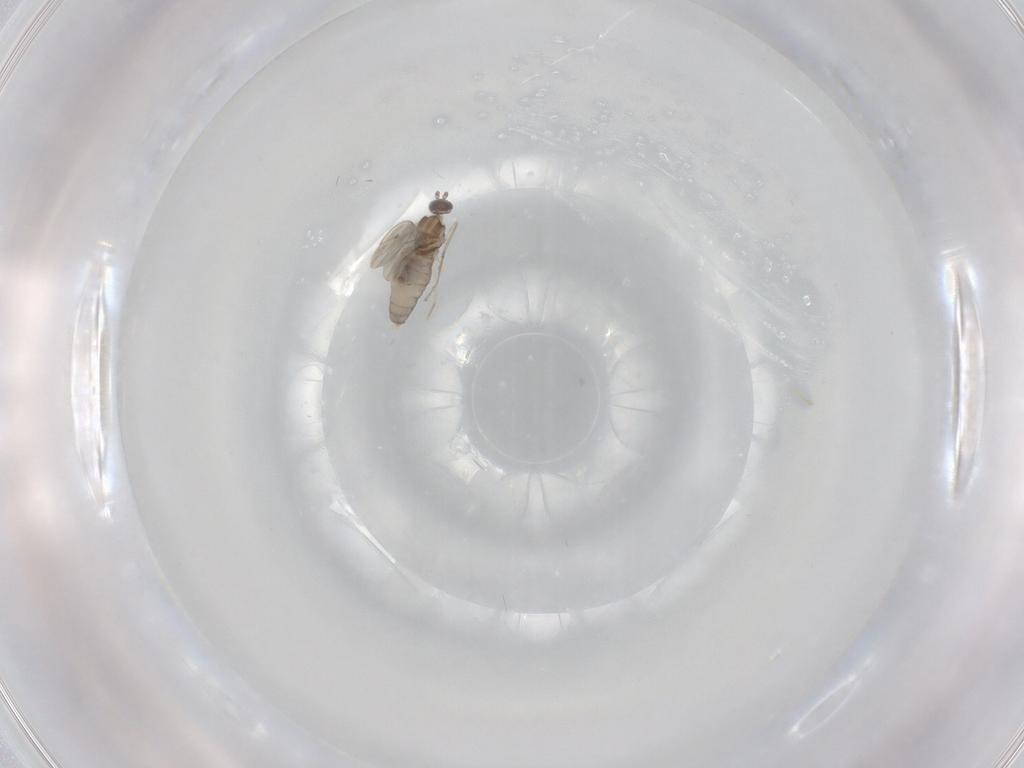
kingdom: Animalia
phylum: Arthropoda
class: Insecta
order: Diptera
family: Cecidomyiidae
